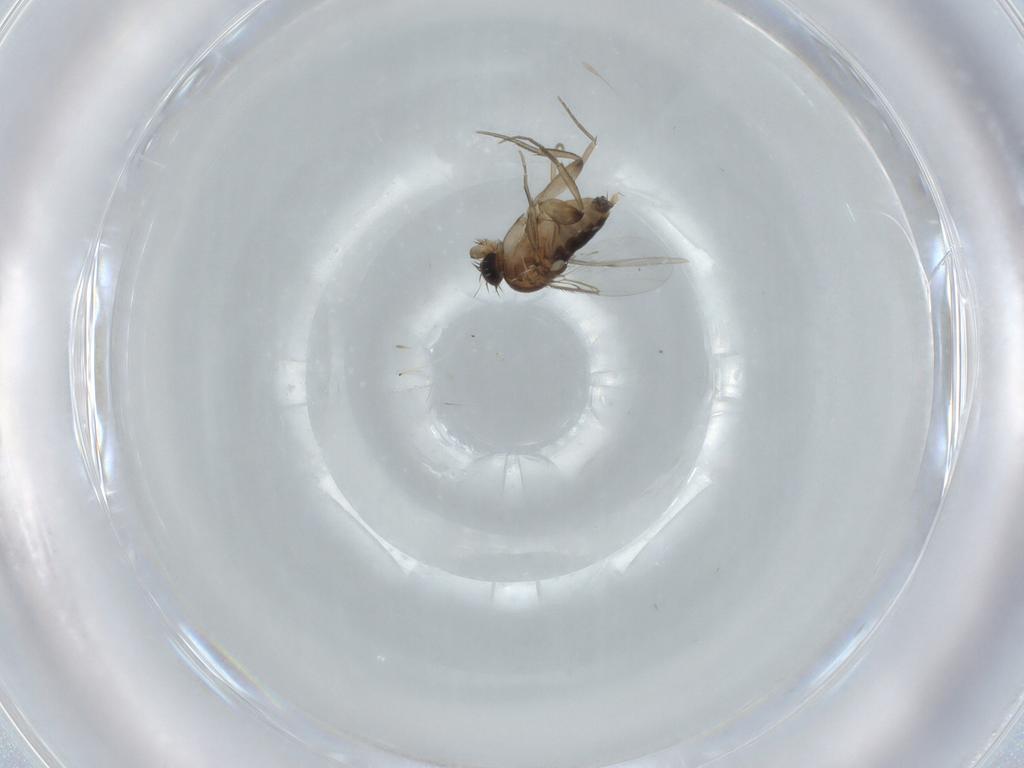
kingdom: Animalia
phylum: Arthropoda
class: Insecta
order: Diptera
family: Phoridae
